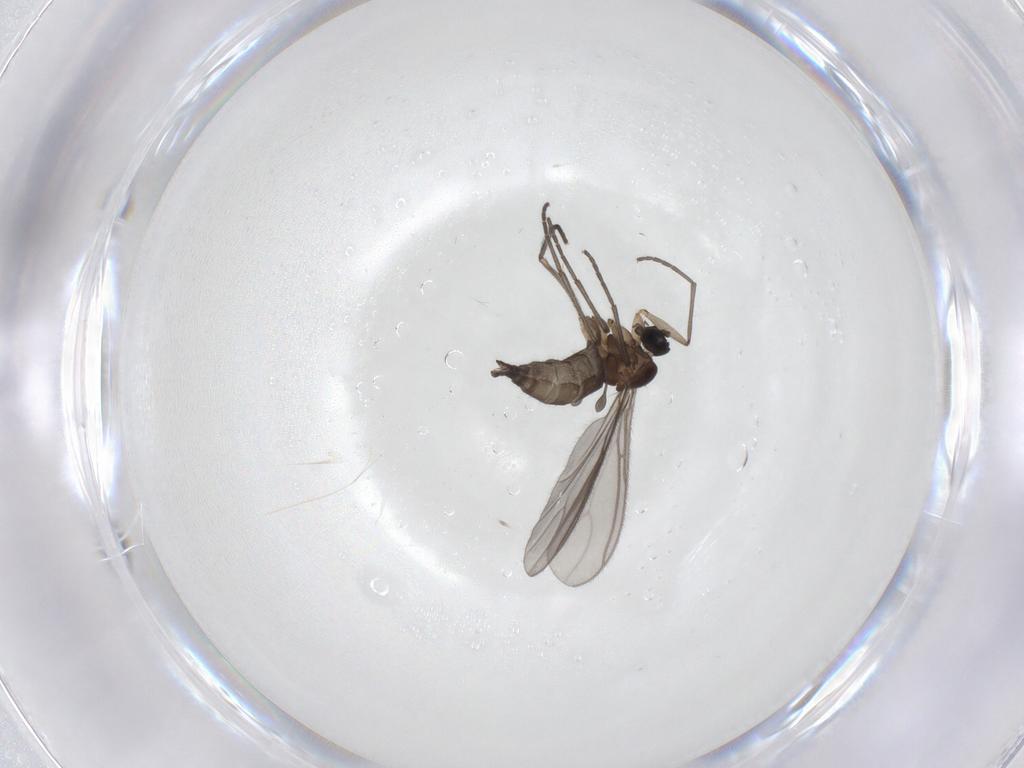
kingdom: Animalia
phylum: Arthropoda
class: Insecta
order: Diptera
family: Sciaridae
